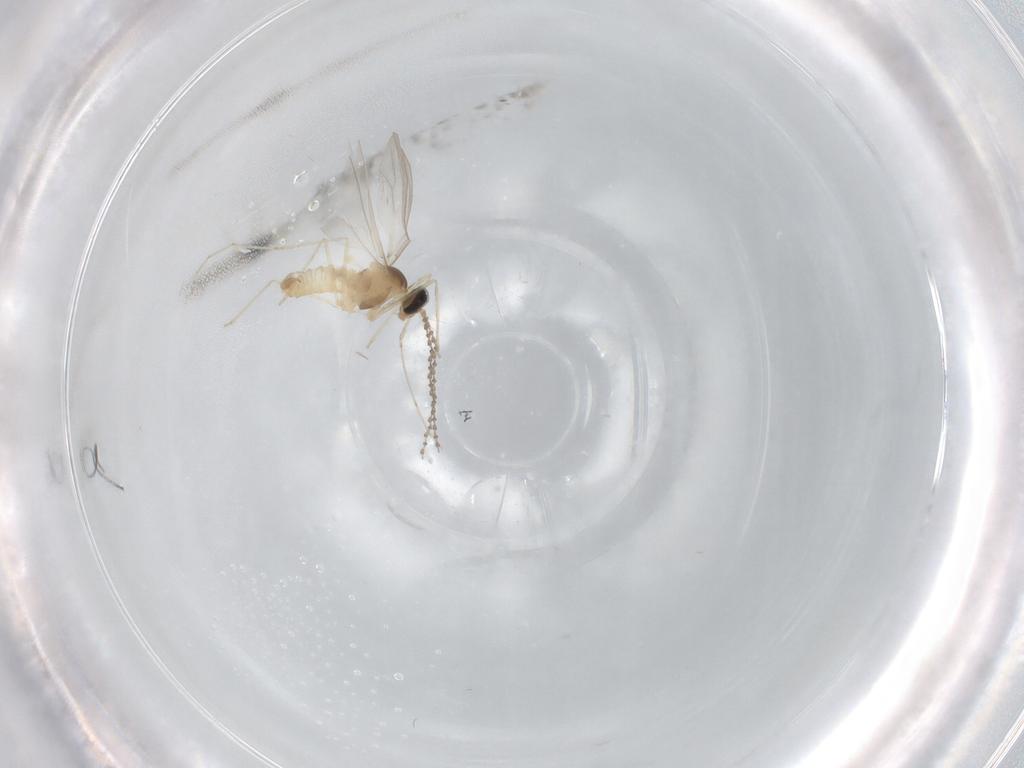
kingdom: Animalia
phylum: Arthropoda
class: Insecta
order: Diptera
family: Cecidomyiidae
